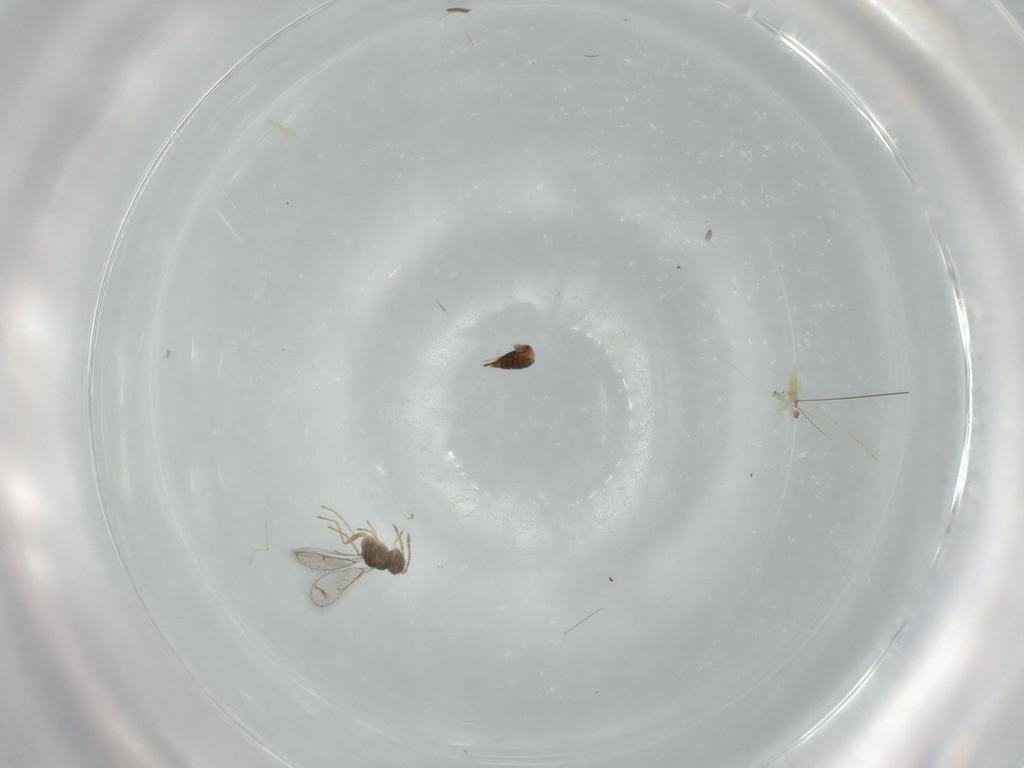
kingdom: Animalia
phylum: Arthropoda
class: Insecta
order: Hymenoptera
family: Eulophidae
